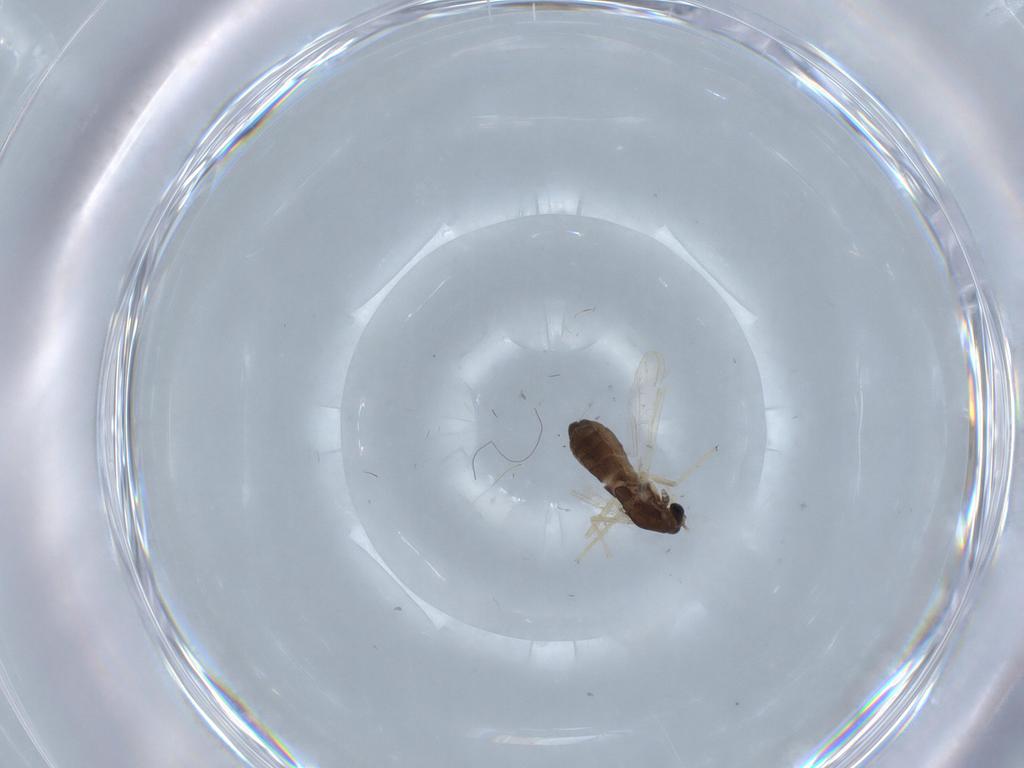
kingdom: Animalia
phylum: Arthropoda
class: Insecta
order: Diptera
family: Chironomidae
